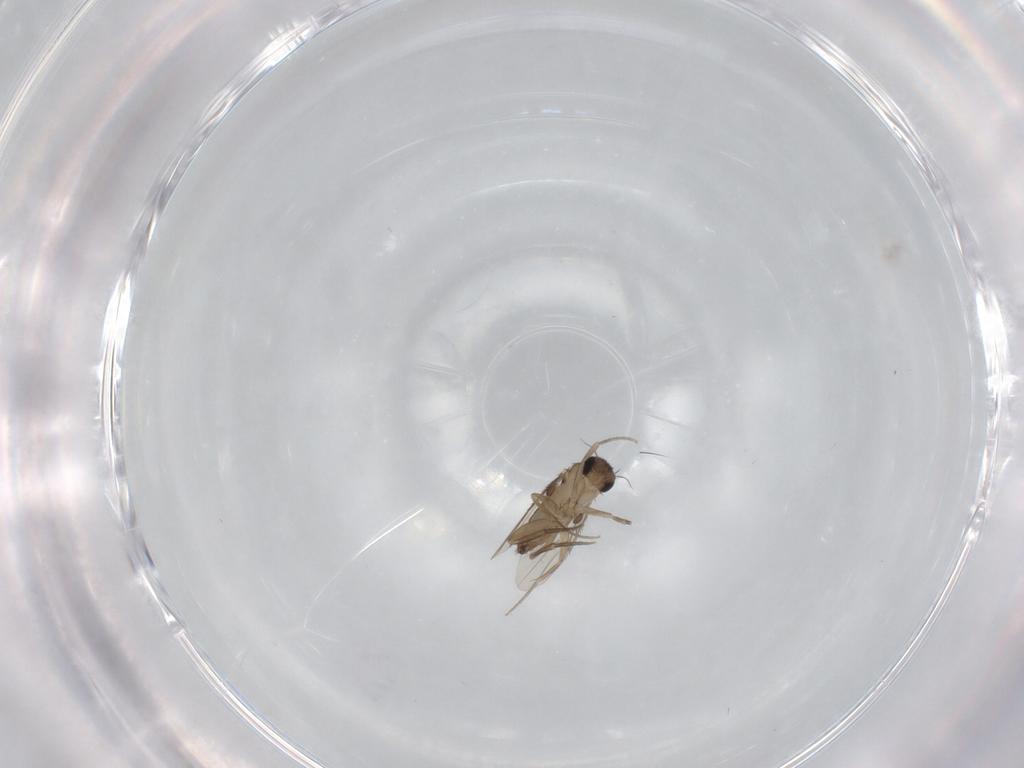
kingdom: Animalia
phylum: Arthropoda
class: Insecta
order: Diptera
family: Phoridae
